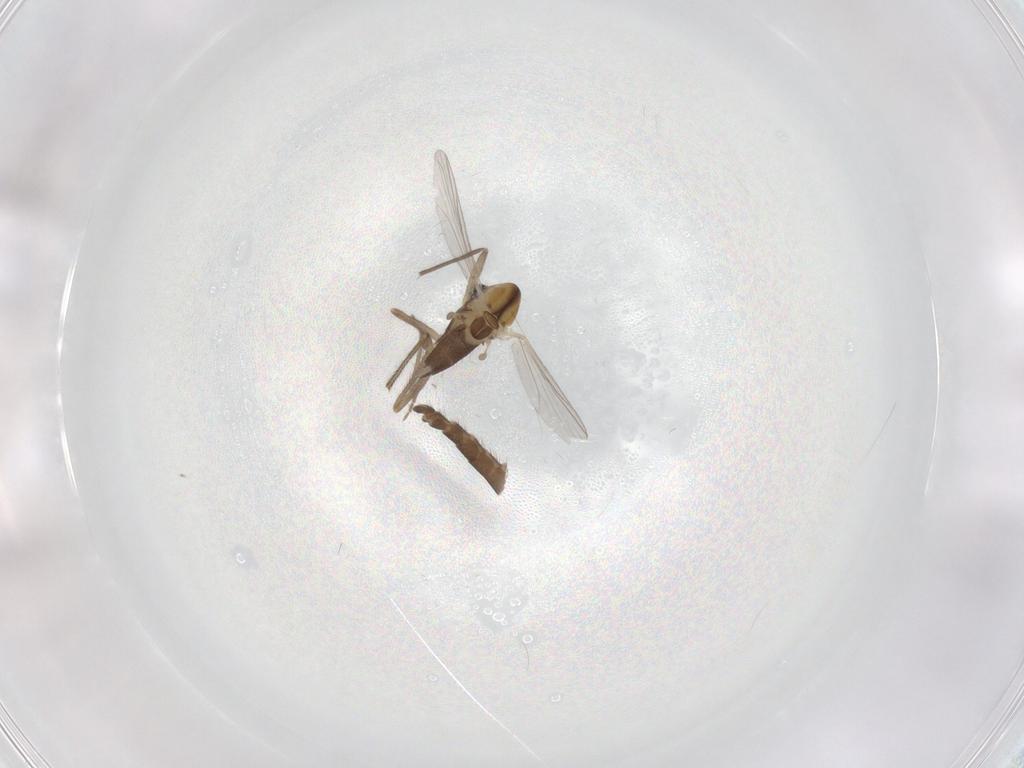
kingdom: Animalia
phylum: Arthropoda
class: Insecta
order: Diptera
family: Chironomidae
